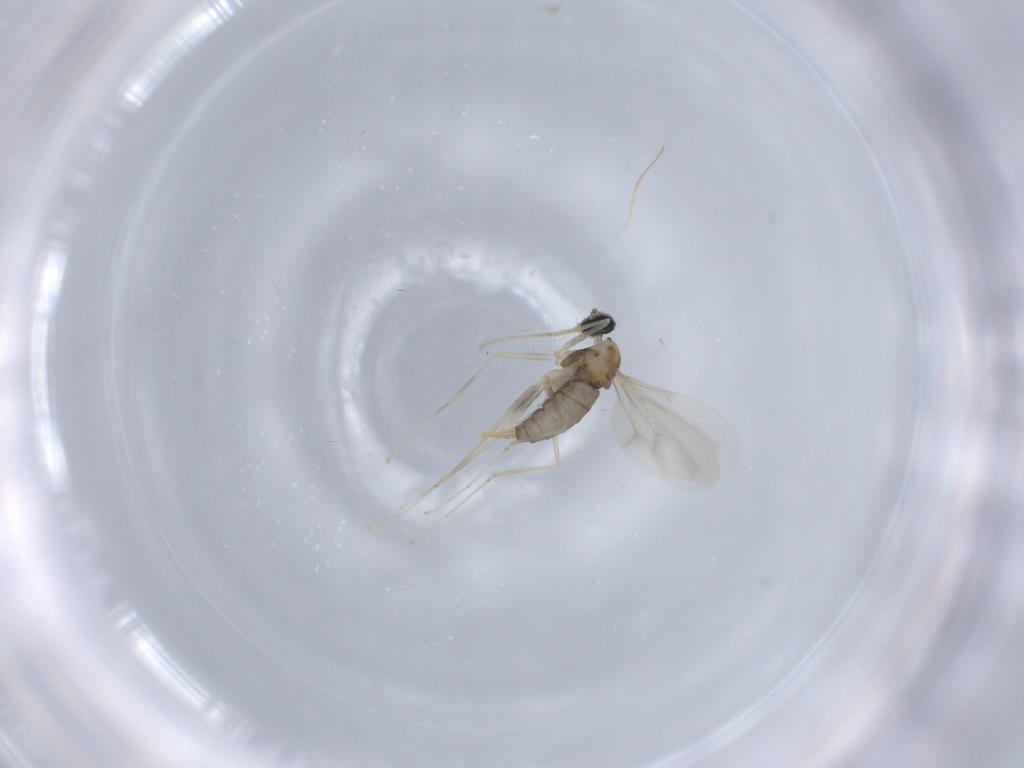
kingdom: Animalia
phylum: Arthropoda
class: Insecta
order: Diptera
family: Cecidomyiidae
